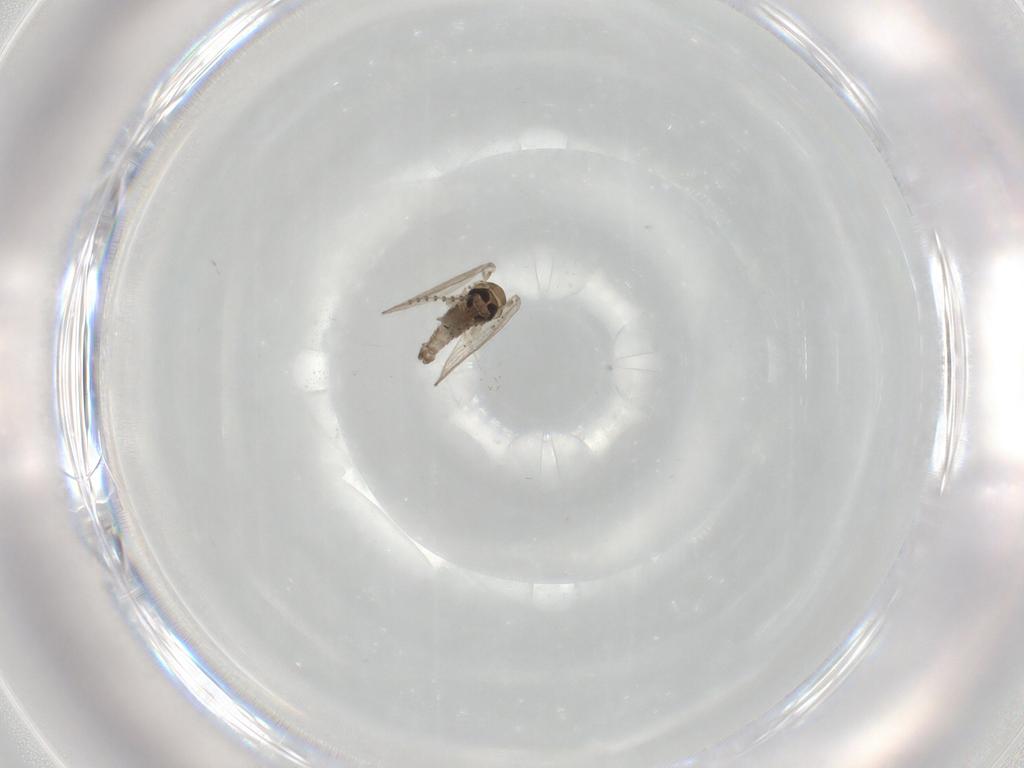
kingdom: Animalia
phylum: Arthropoda
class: Insecta
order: Diptera
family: Psychodidae
